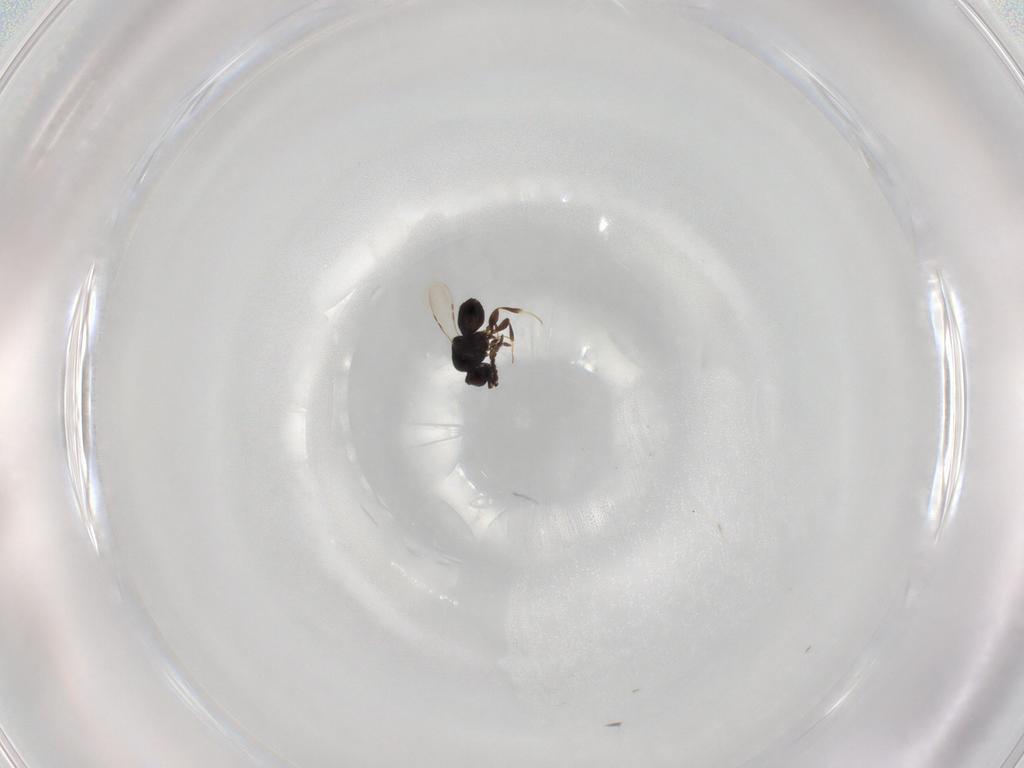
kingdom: Animalia
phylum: Arthropoda
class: Insecta
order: Hymenoptera
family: Ceraphronidae
